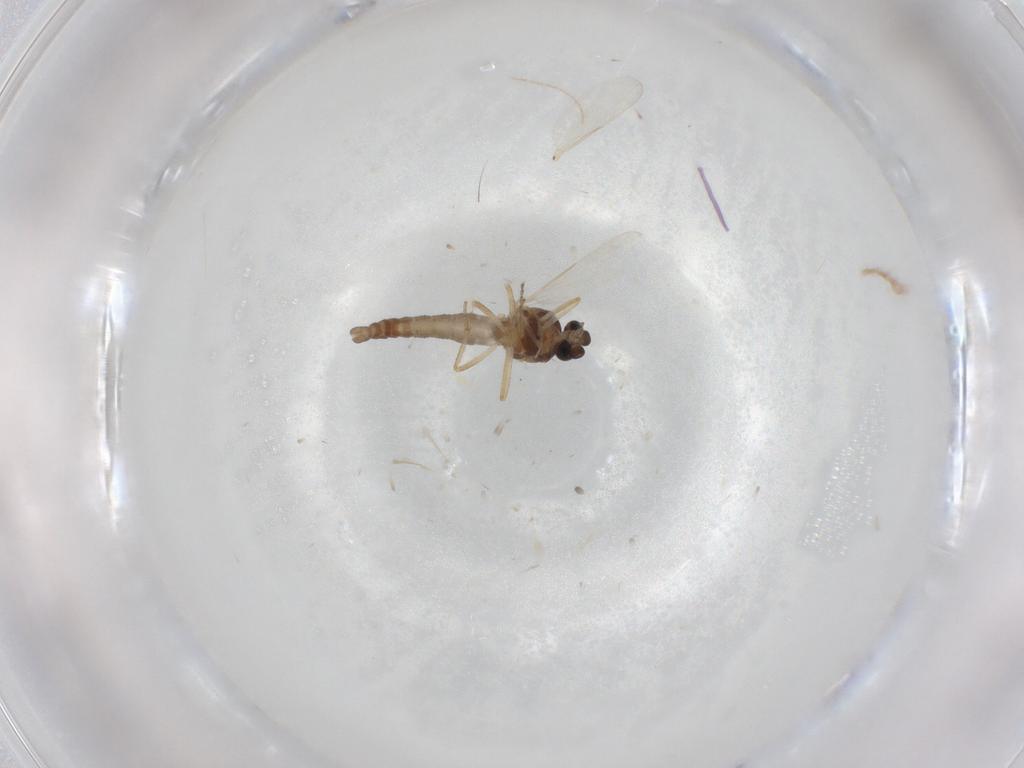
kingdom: Animalia
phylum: Arthropoda
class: Insecta
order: Diptera
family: Ceratopogonidae
